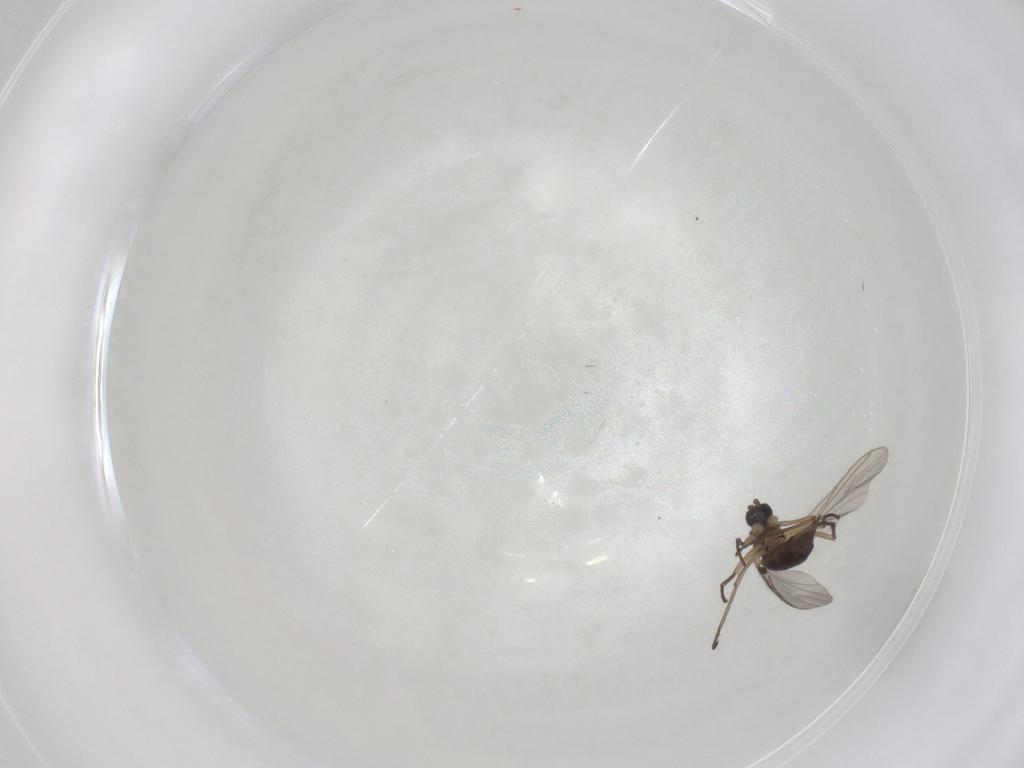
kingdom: Animalia
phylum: Arthropoda
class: Insecta
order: Diptera
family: Sciaridae
